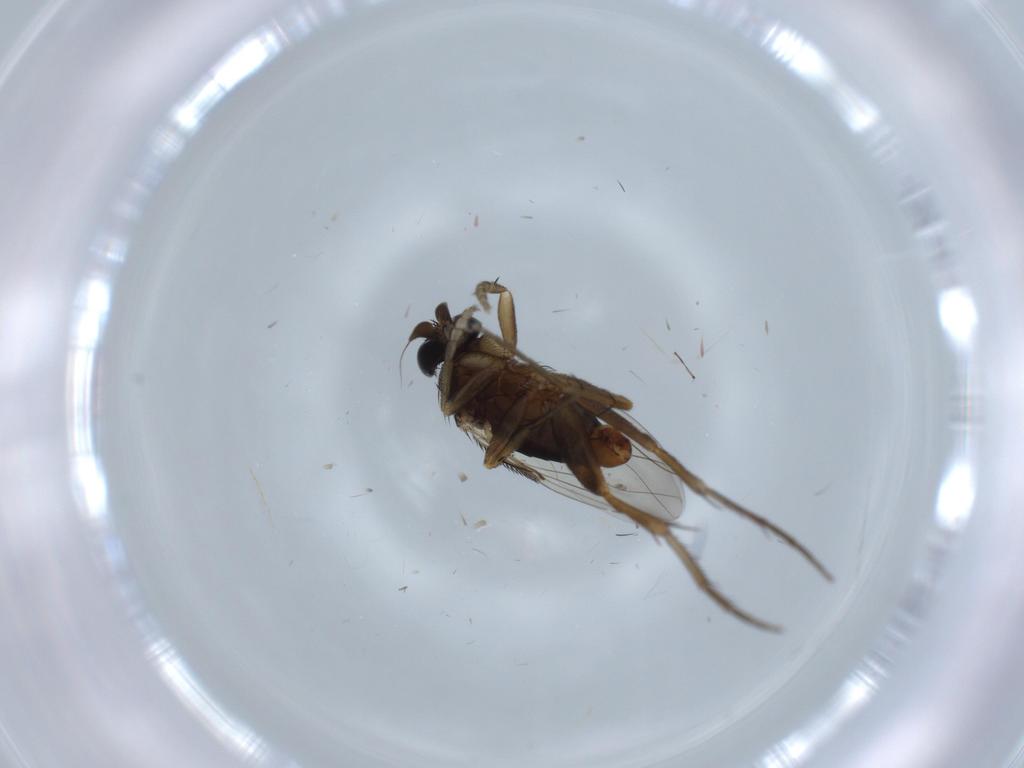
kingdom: Animalia
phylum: Arthropoda
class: Insecta
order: Diptera
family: Phoridae
